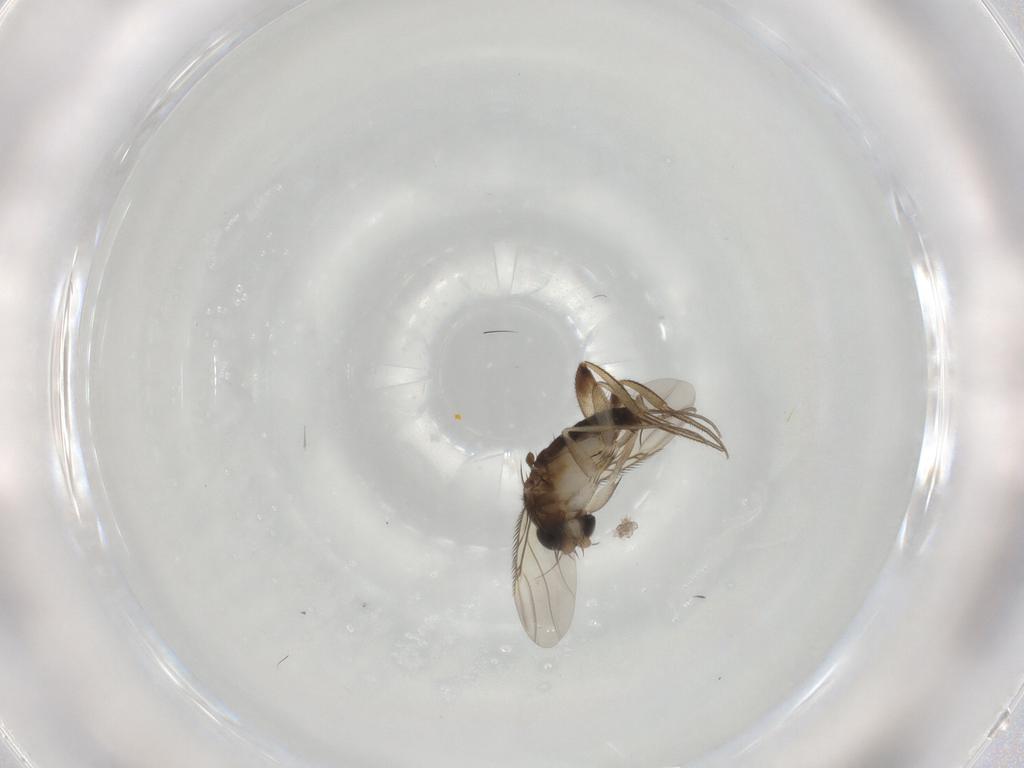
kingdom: Animalia
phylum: Arthropoda
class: Insecta
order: Diptera
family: Phoridae
